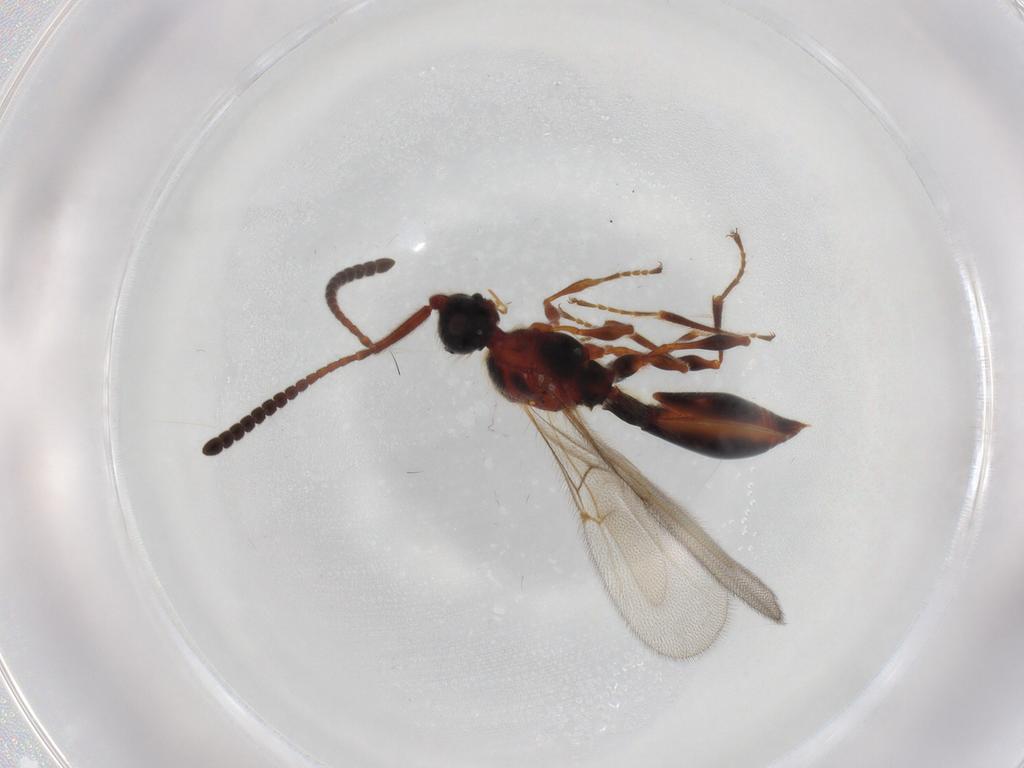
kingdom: Animalia
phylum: Arthropoda
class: Insecta
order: Hymenoptera
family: Diapriidae
